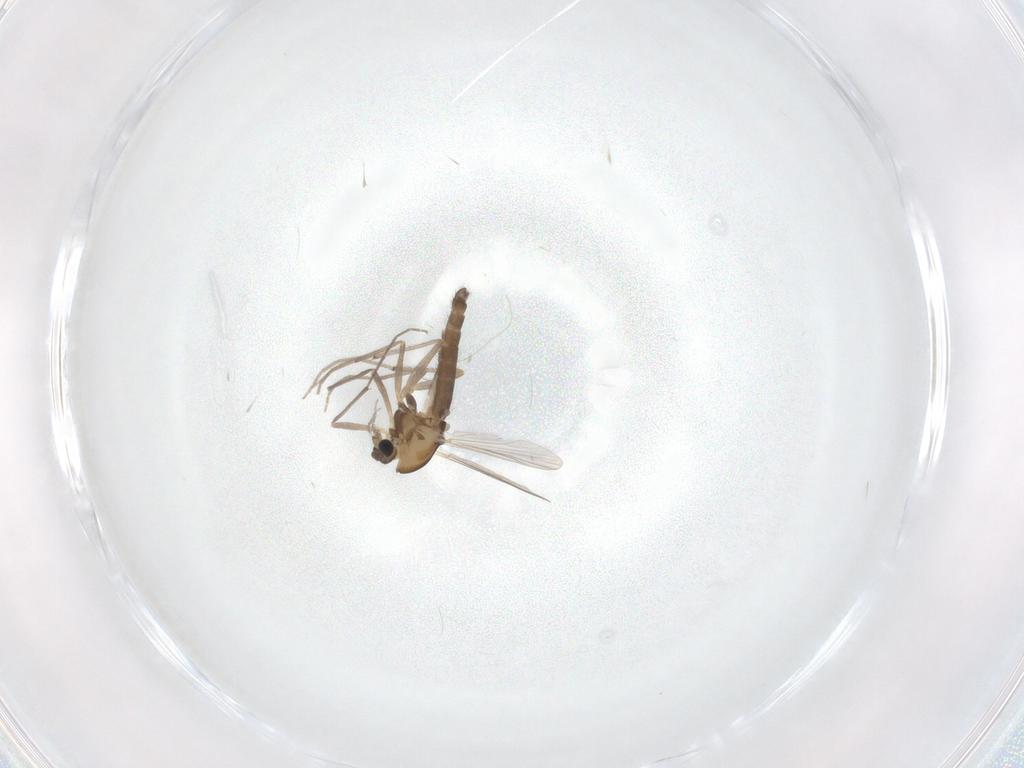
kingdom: Animalia
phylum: Arthropoda
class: Insecta
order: Diptera
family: Chironomidae
